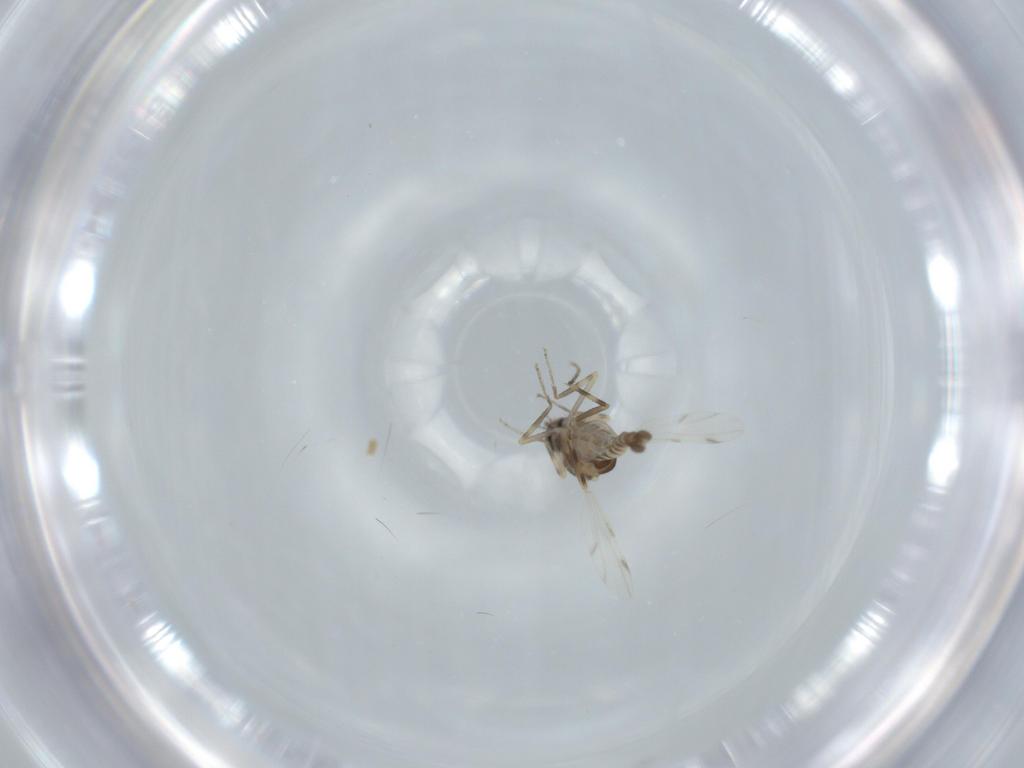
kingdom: Animalia
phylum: Arthropoda
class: Insecta
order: Diptera
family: Ceratopogonidae
